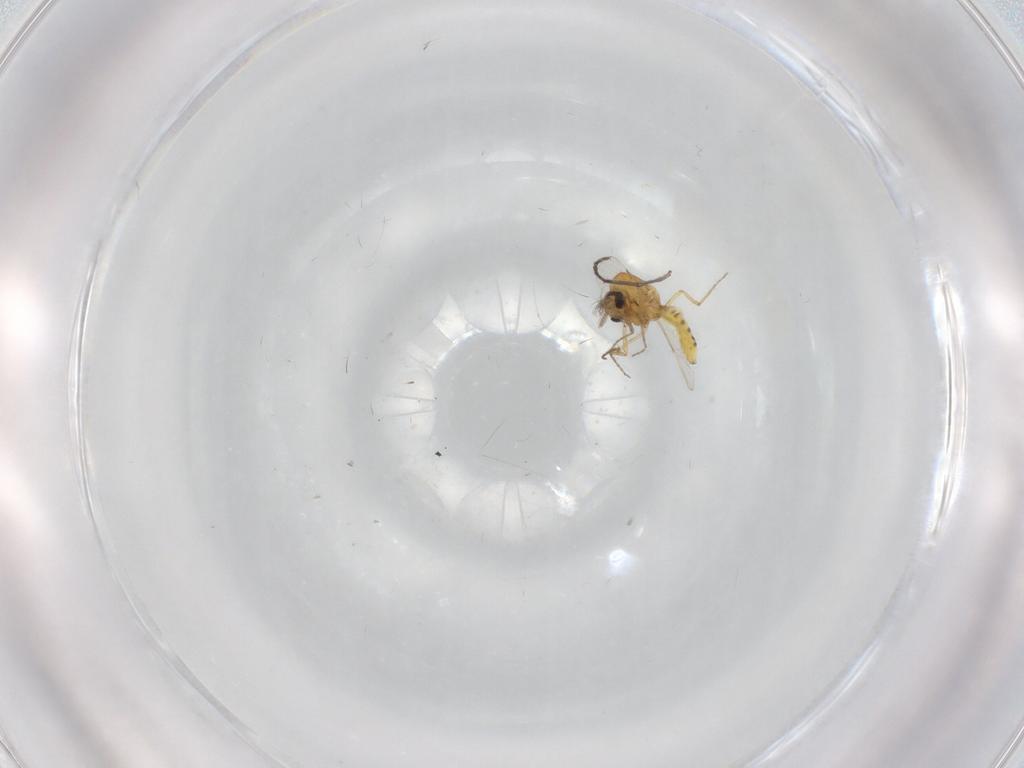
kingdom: Animalia
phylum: Arthropoda
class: Insecta
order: Diptera
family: Ceratopogonidae
